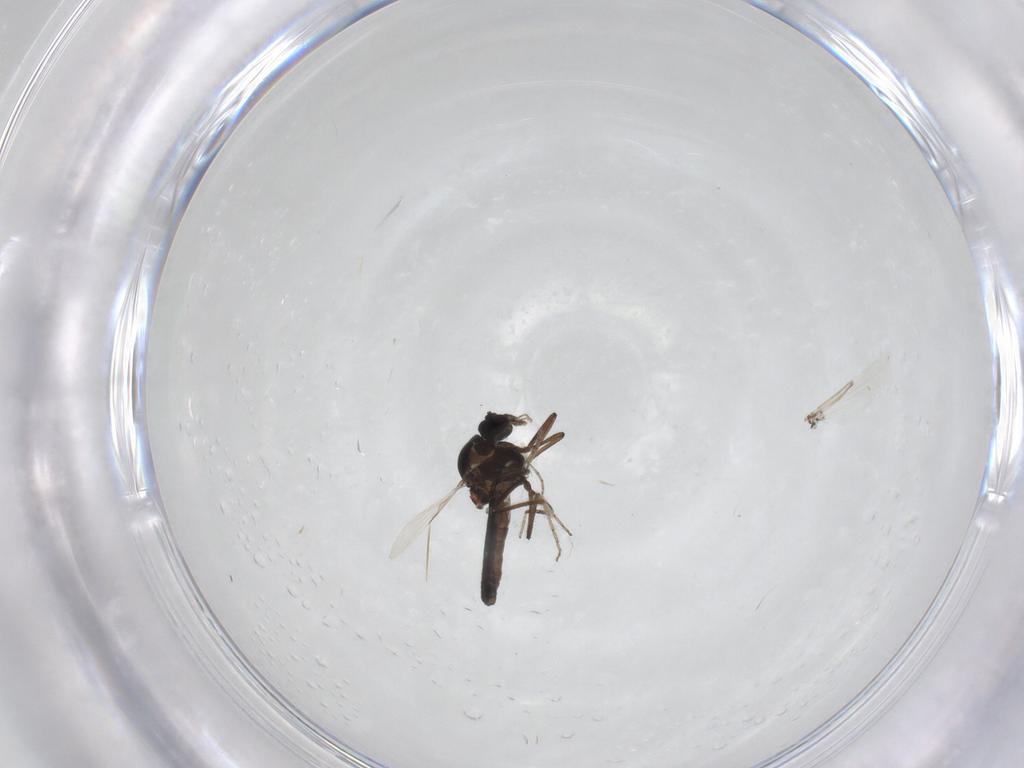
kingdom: Animalia
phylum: Arthropoda
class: Insecta
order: Diptera
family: Ceratopogonidae
